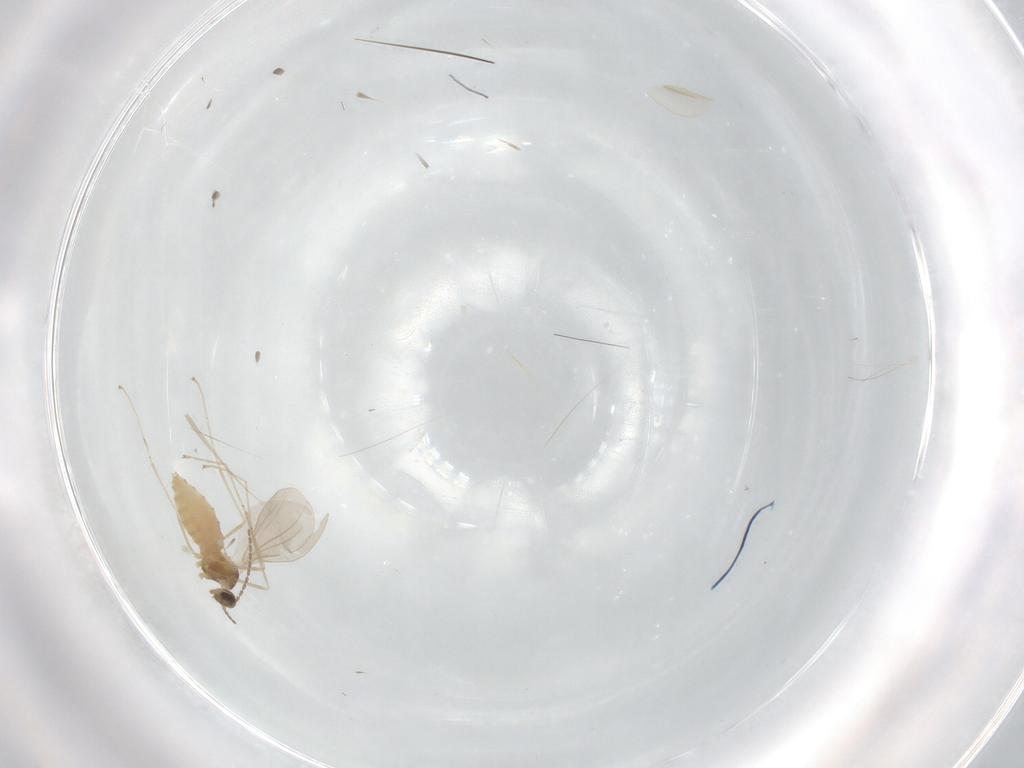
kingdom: Animalia
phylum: Arthropoda
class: Insecta
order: Diptera
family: Cecidomyiidae
